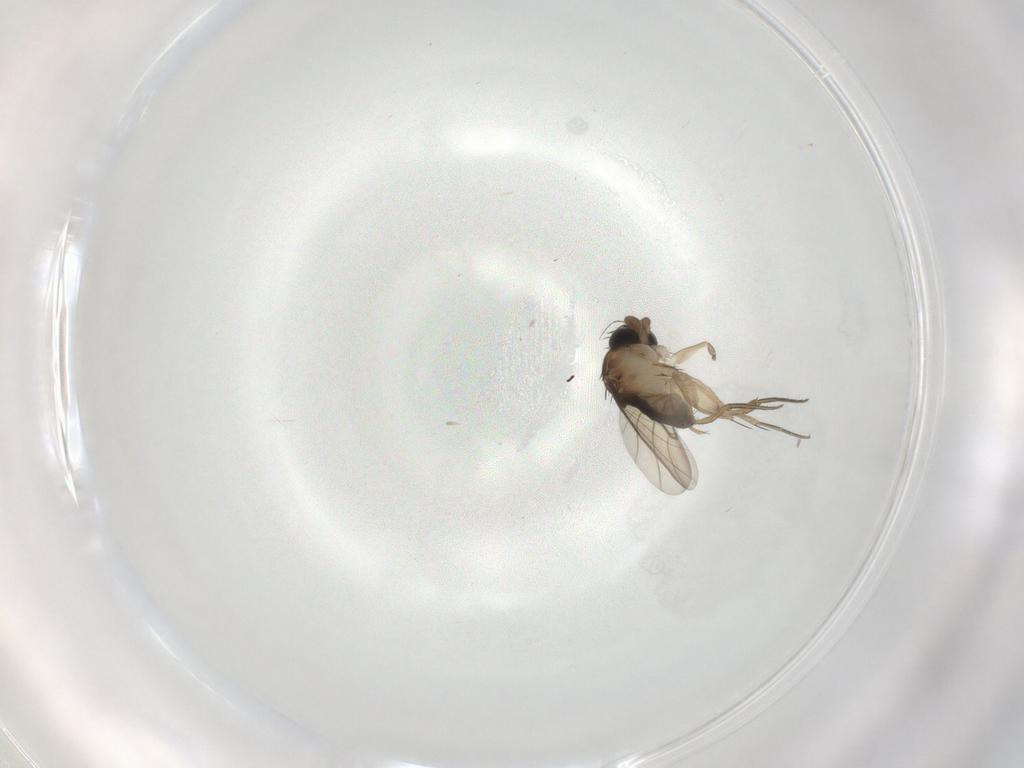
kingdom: Animalia
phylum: Arthropoda
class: Insecta
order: Diptera
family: Phoridae
